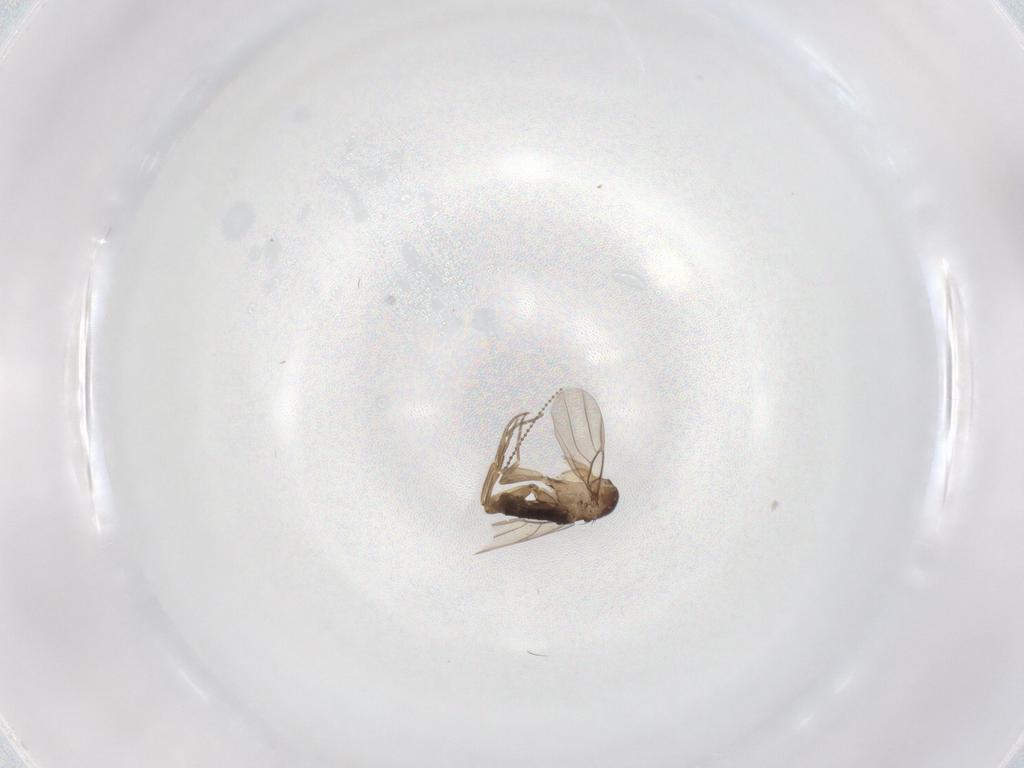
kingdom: Animalia
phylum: Arthropoda
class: Insecta
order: Diptera
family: Phoridae
